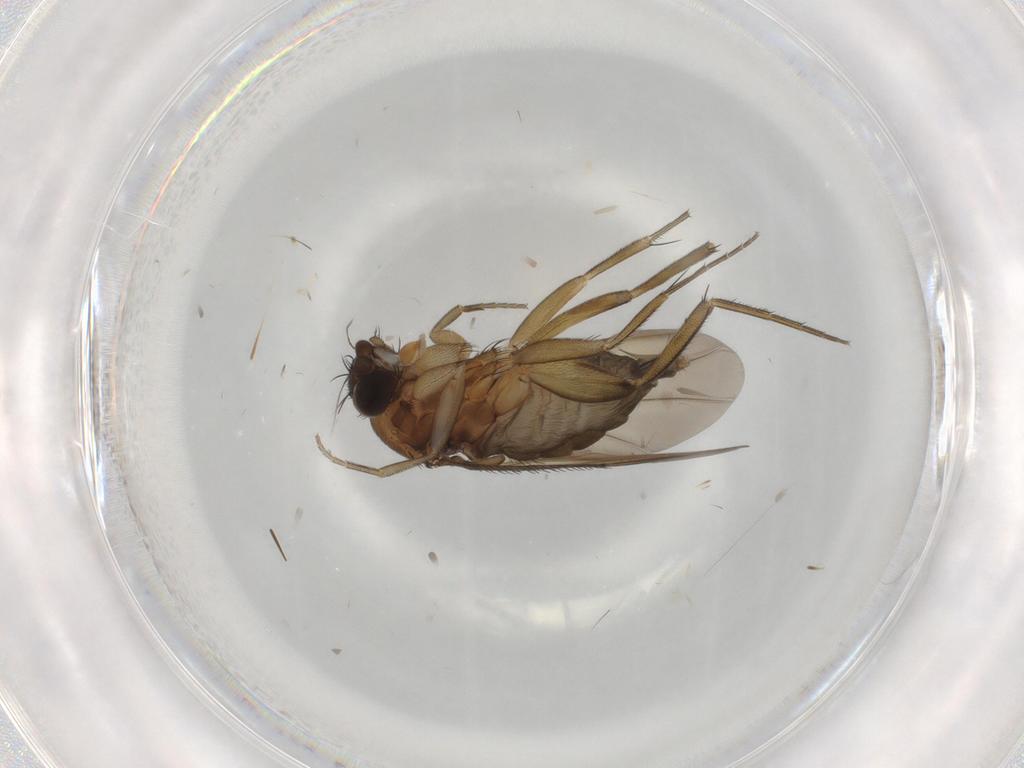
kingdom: Animalia
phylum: Arthropoda
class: Insecta
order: Diptera
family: Phoridae
